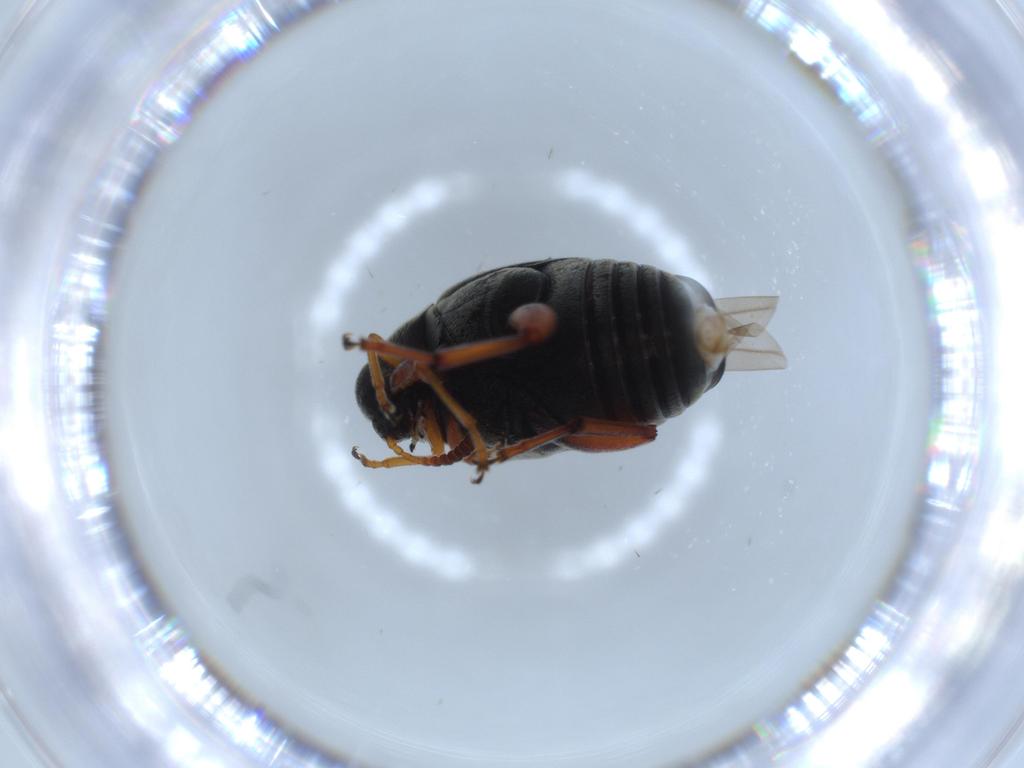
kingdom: Animalia
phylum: Arthropoda
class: Insecta
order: Coleoptera
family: Chrysomelidae
